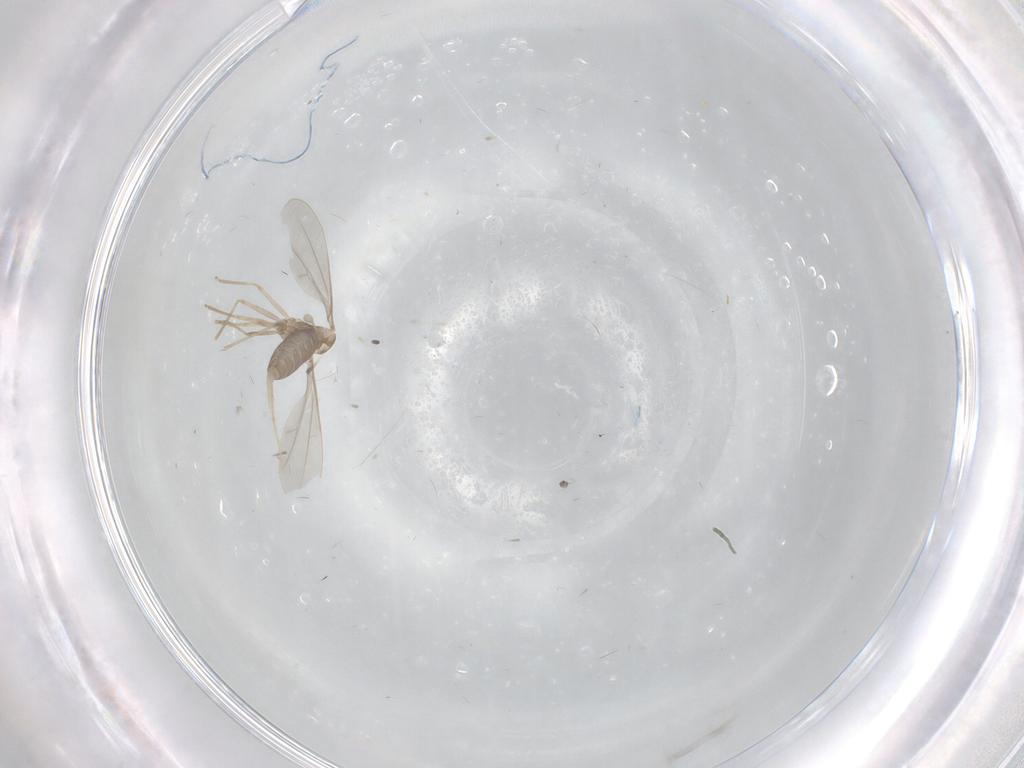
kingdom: Animalia
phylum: Arthropoda
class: Insecta
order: Diptera
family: Cecidomyiidae
